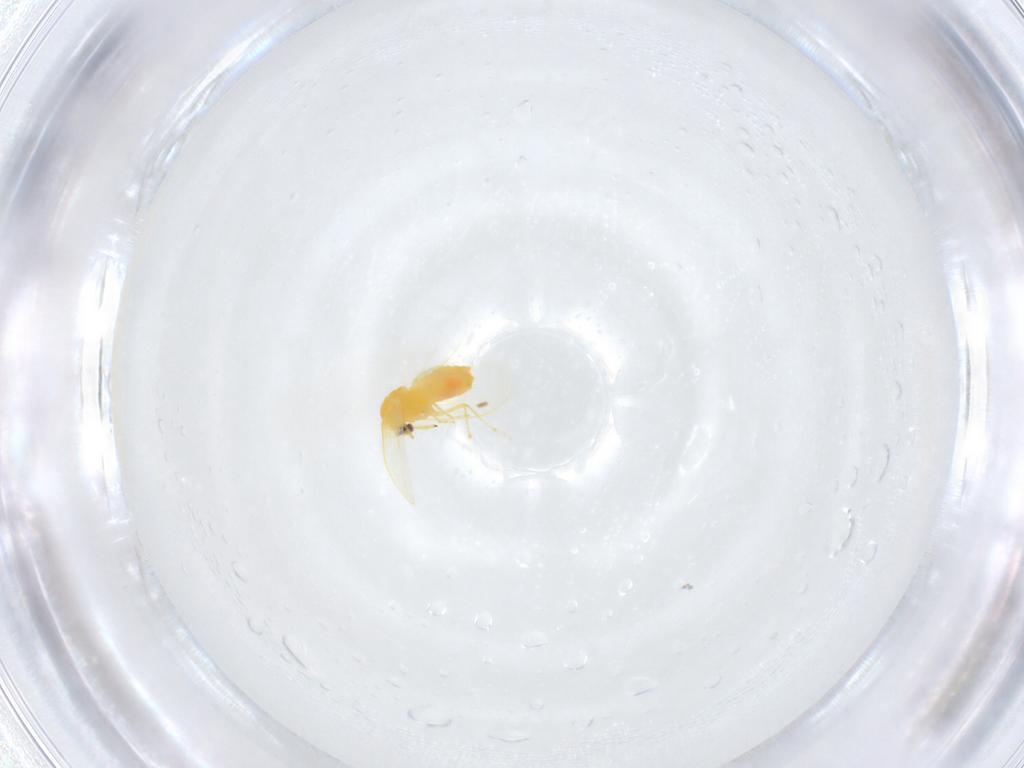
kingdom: Animalia
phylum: Arthropoda
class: Insecta
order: Hemiptera
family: Aleyrodidae
